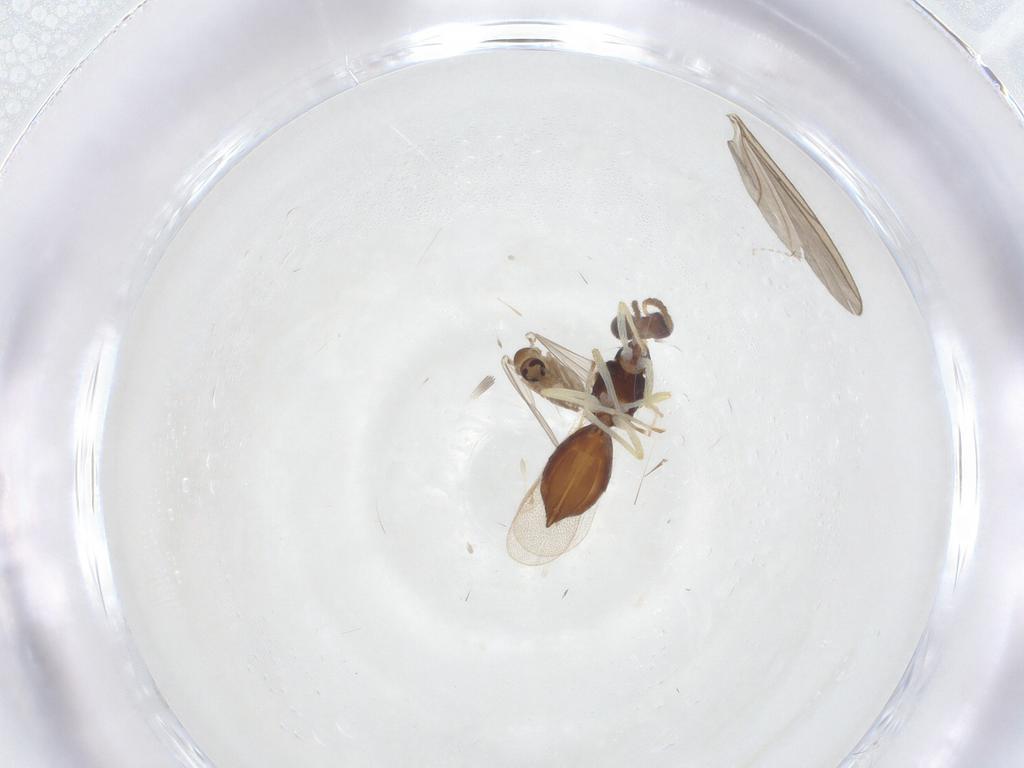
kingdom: Animalia
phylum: Arthropoda
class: Insecta
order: Diptera
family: Psychodidae
